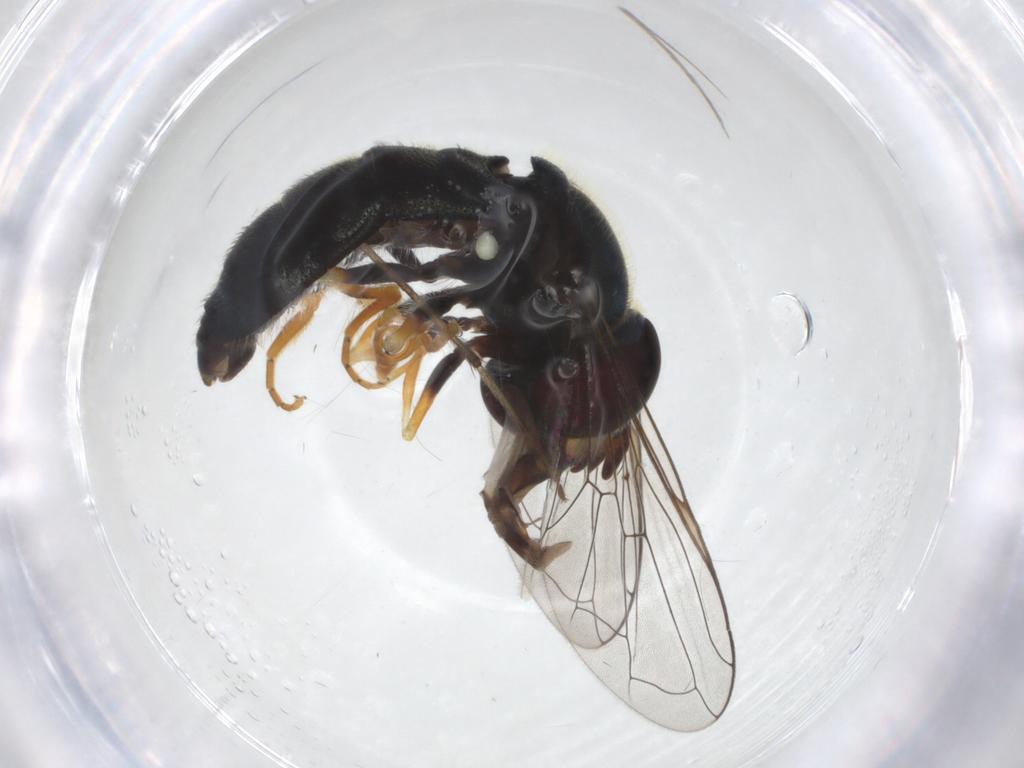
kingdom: Animalia
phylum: Arthropoda
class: Insecta
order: Diptera
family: Syrphidae
